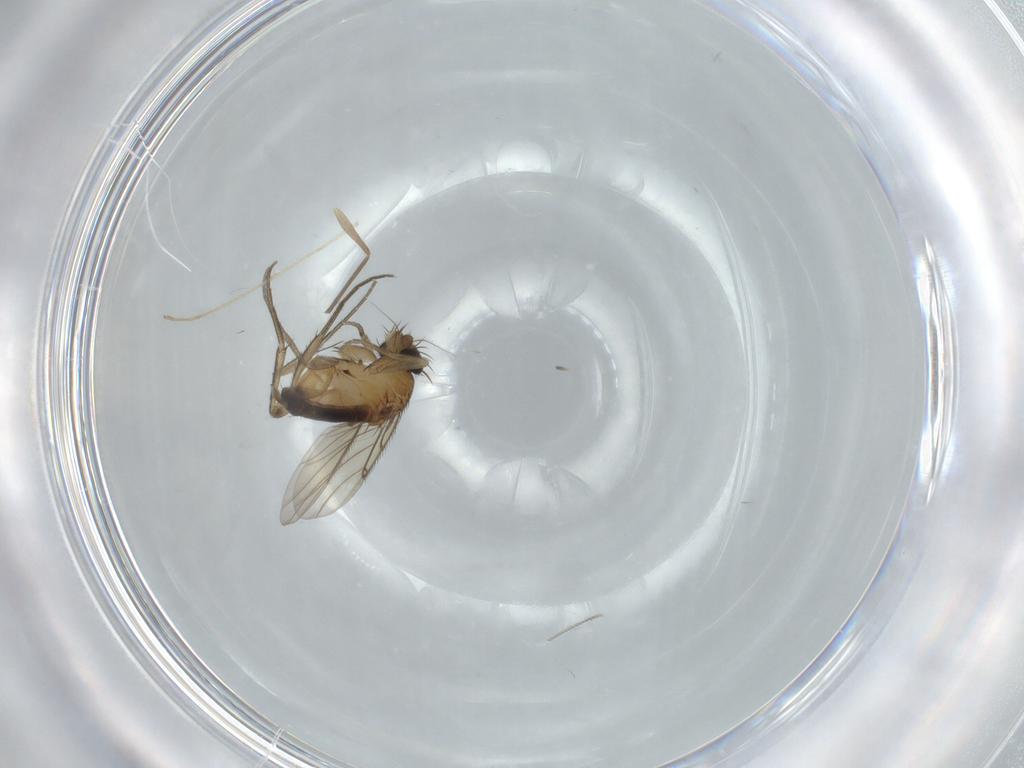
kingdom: Animalia
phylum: Arthropoda
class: Insecta
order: Diptera
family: Phoridae
